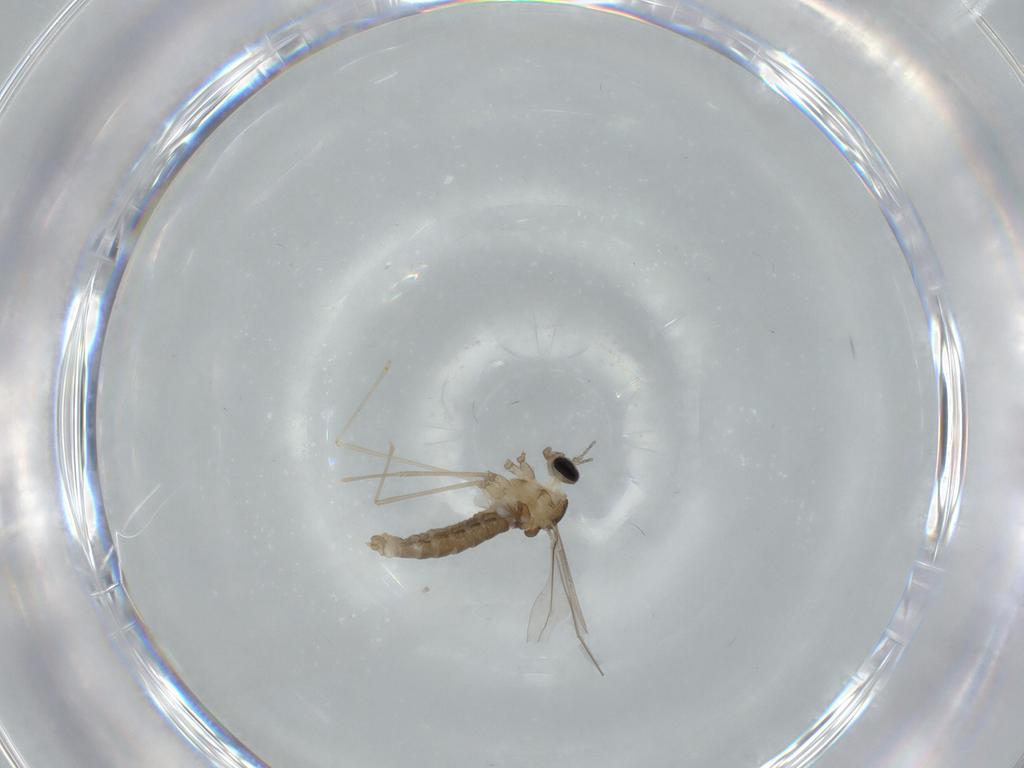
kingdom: Animalia
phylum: Arthropoda
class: Insecta
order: Diptera
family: Cecidomyiidae
